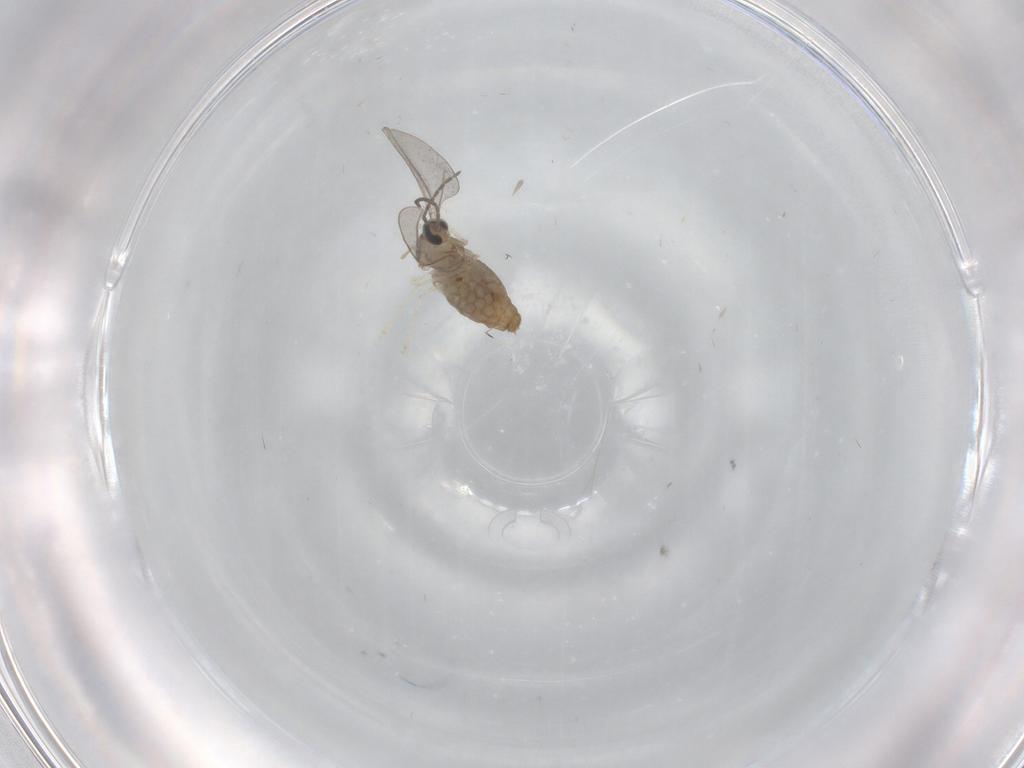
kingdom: Animalia
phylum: Arthropoda
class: Insecta
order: Diptera
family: Cecidomyiidae
